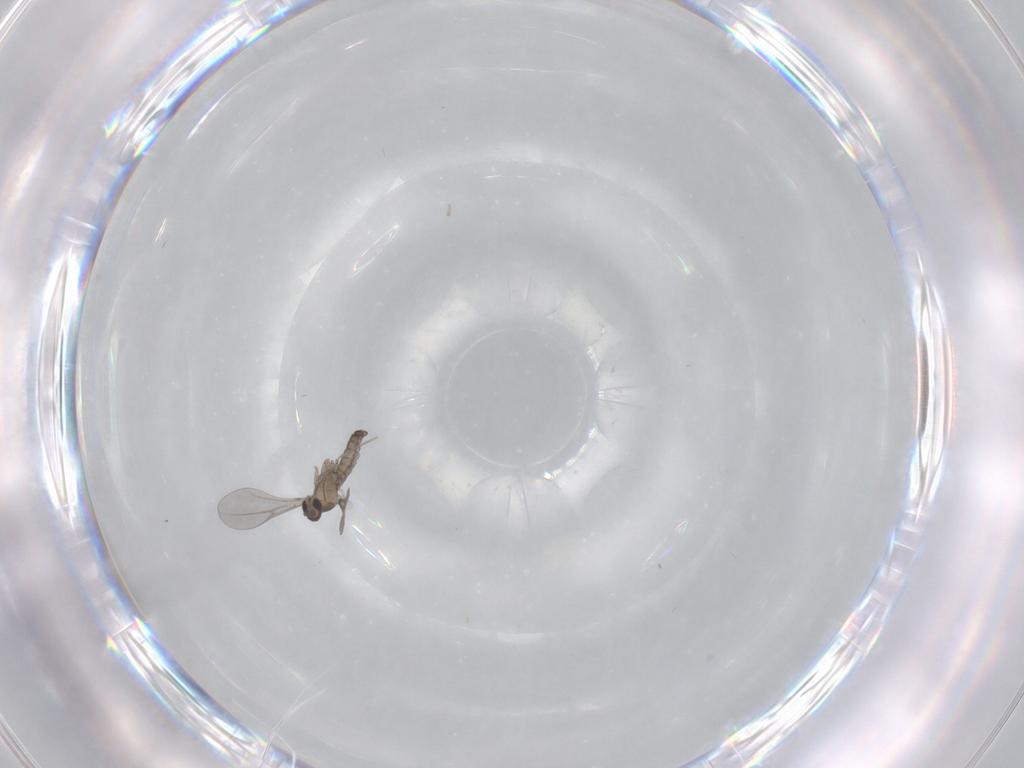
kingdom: Animalia
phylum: Arthropoda
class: Insecta
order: Diptera
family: Cecidomyiidae
